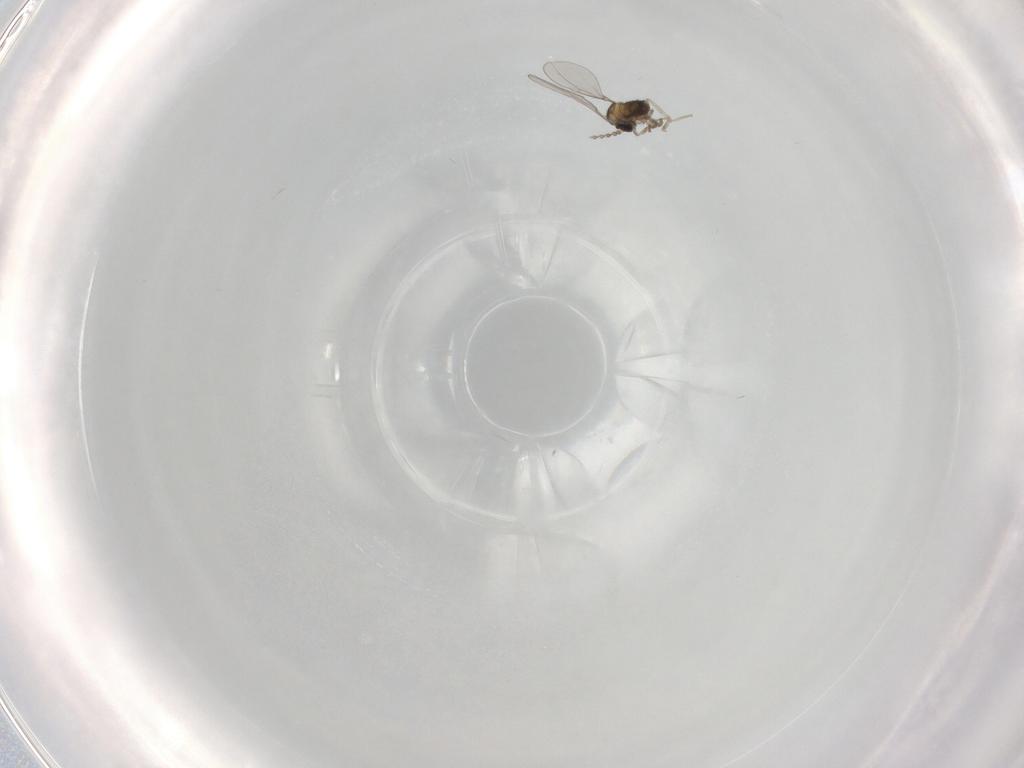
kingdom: Animalia
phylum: Arthropoda
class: Insecta
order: Diptera
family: Cecidomyiidae
